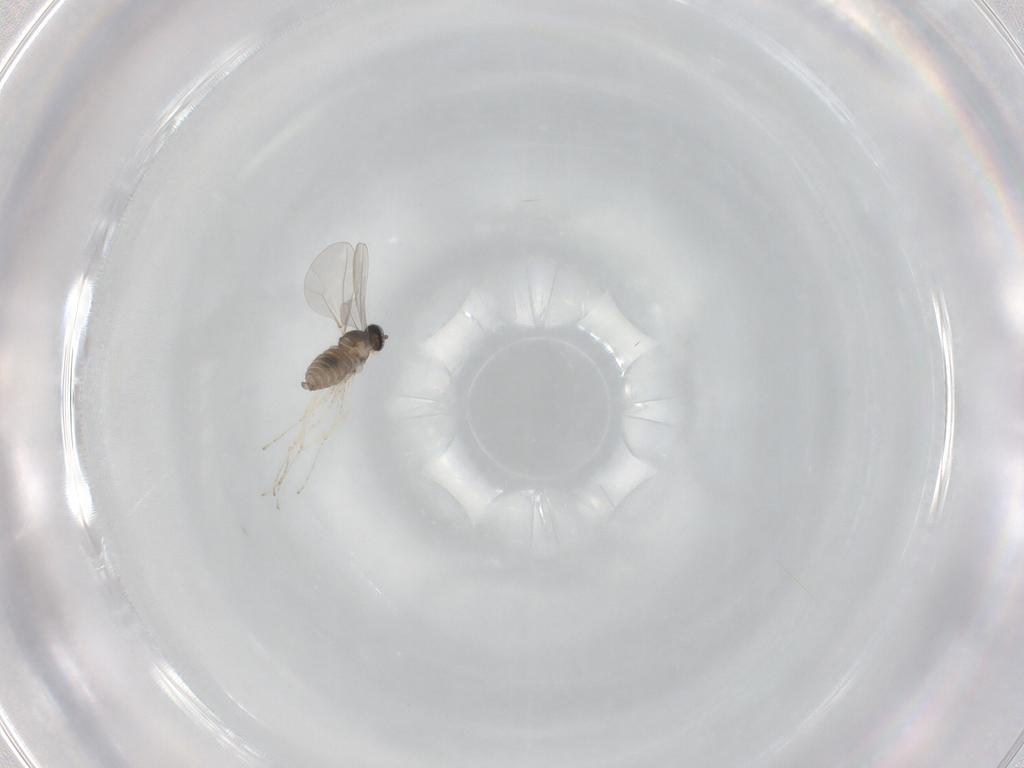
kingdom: Animalia
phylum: Arthropoda
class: Insecta
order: Diptera
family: Cecidomyiidae
